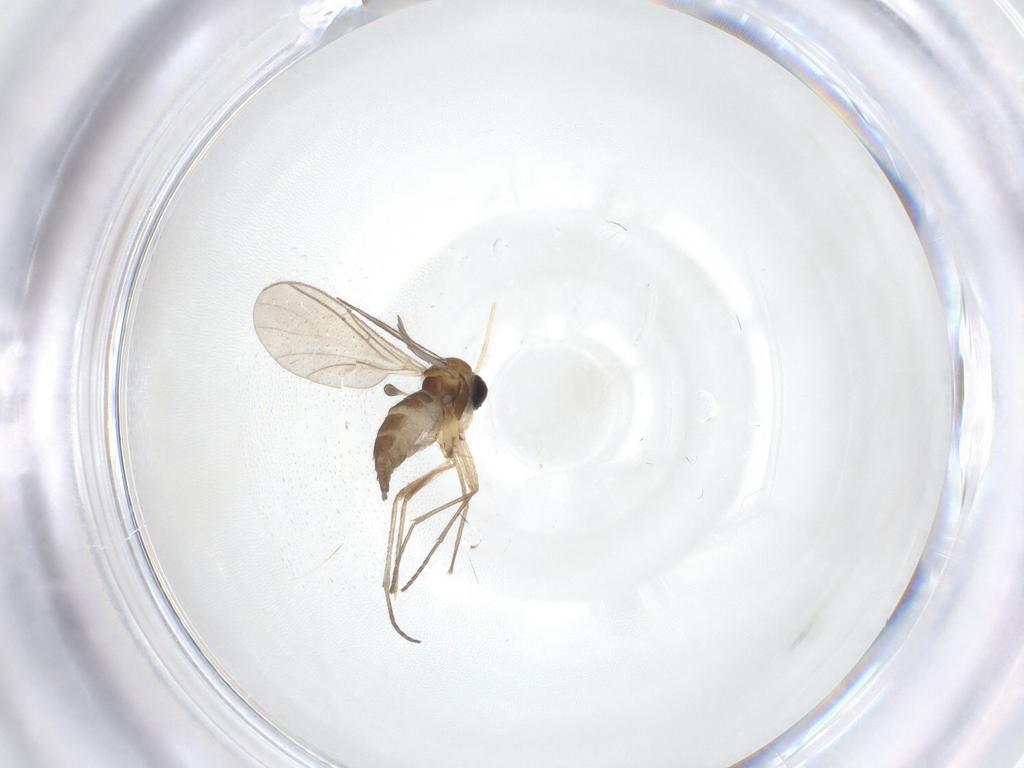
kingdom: Animalia
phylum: Arthropoda
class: Insecta
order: Diptera
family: Sciaridae
